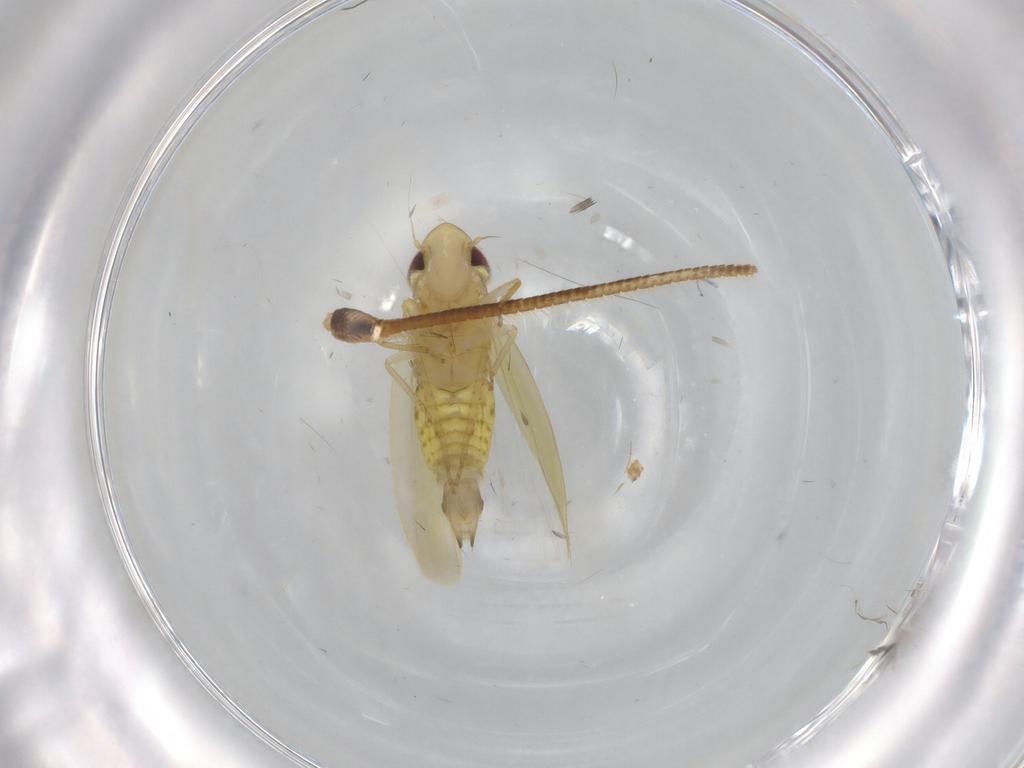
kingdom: Animalia
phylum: Arthropoda
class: Insecta
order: Hemiptera
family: Cicadellidae
